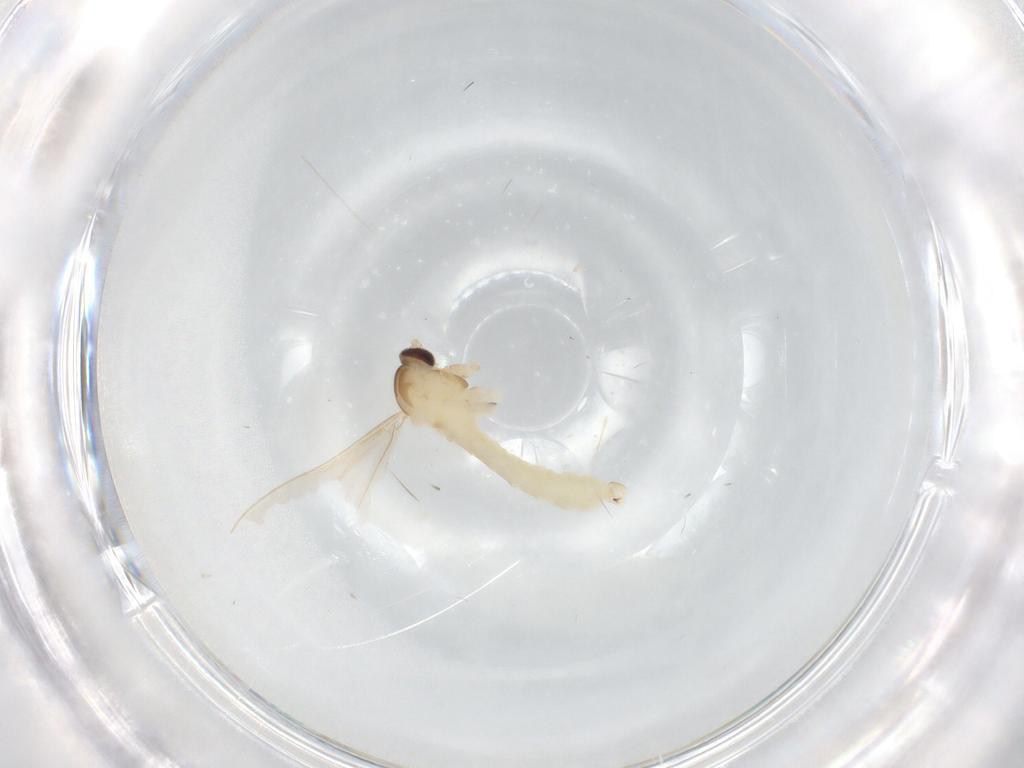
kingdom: Animalia
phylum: Arthropoda
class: Insecta
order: Diptera
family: Cecidomyiidae
